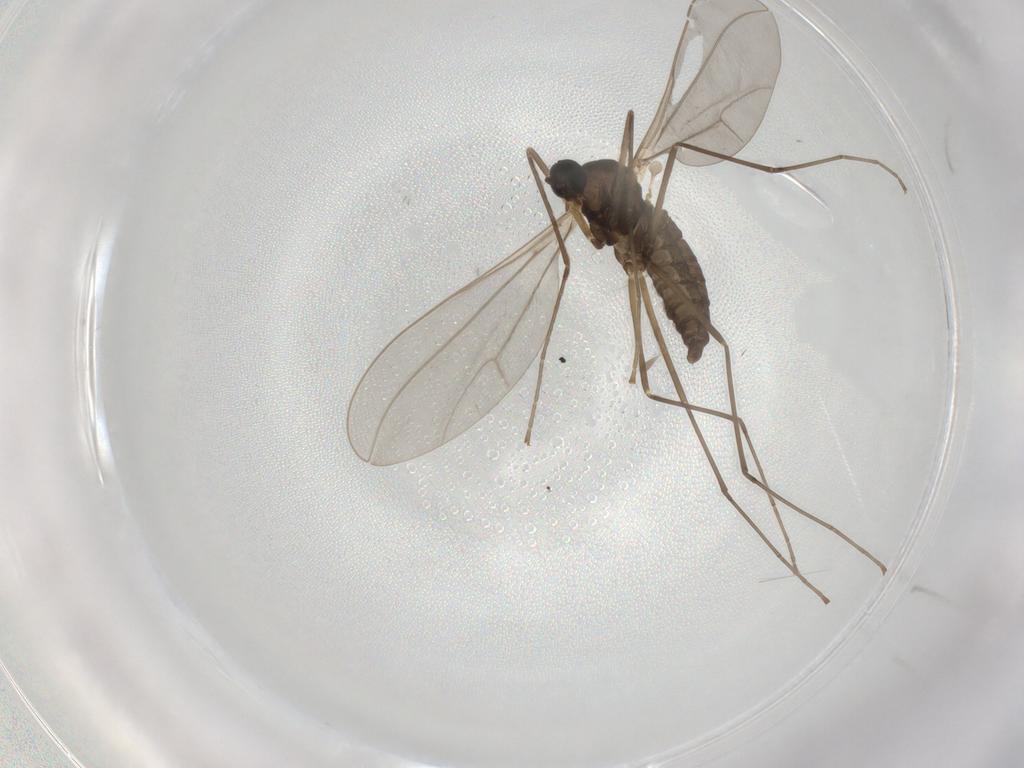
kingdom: Animalia
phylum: Arthropoda
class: Insecta
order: Diptera
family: Cecidomyiidae
